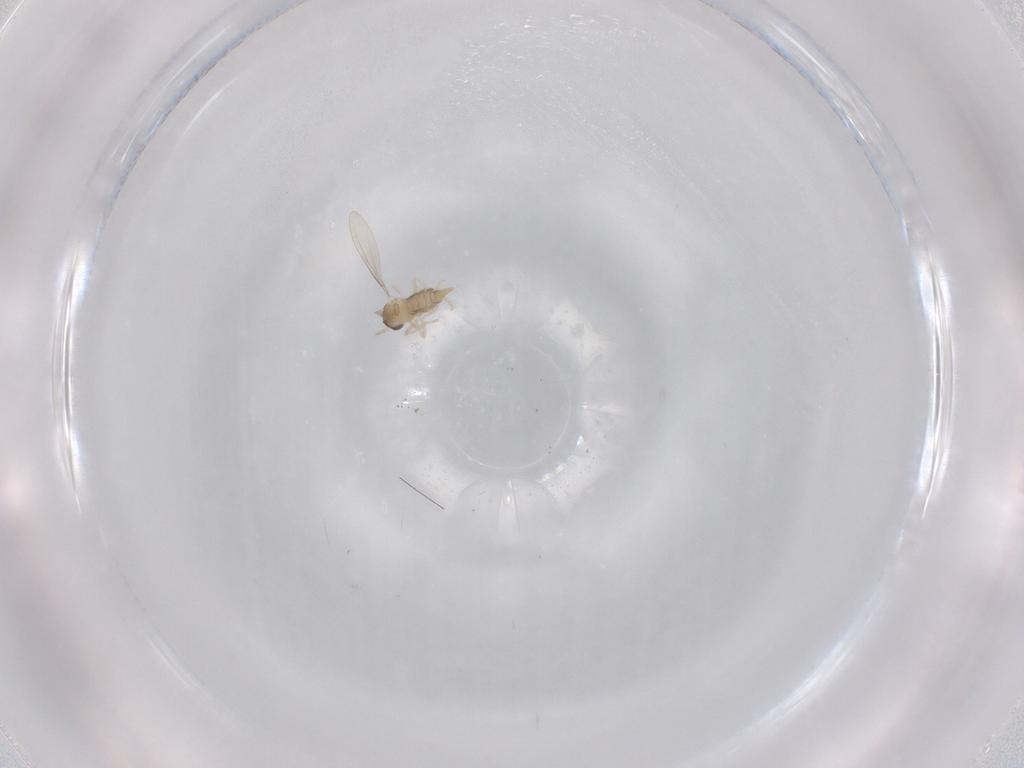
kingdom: Animalia
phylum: Arthropoda
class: Insecta
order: Diptera
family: Cecidomyiidae
